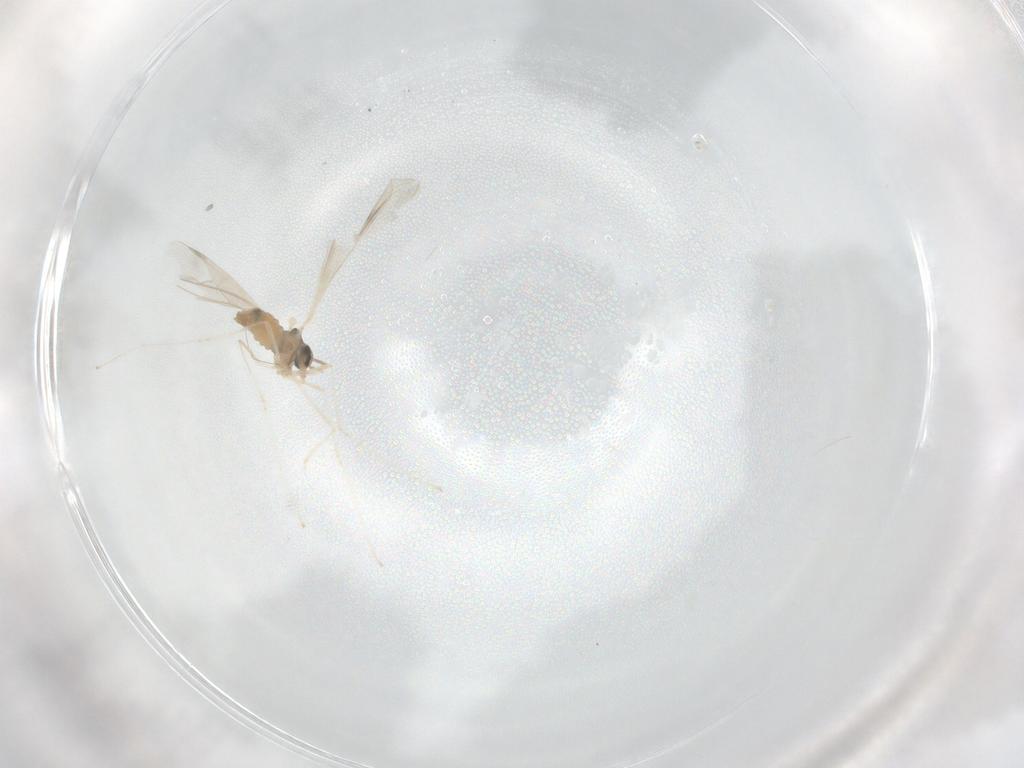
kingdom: Animalia
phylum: Arthropoda
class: Insecta
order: Diptera
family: Mycetophilidae
